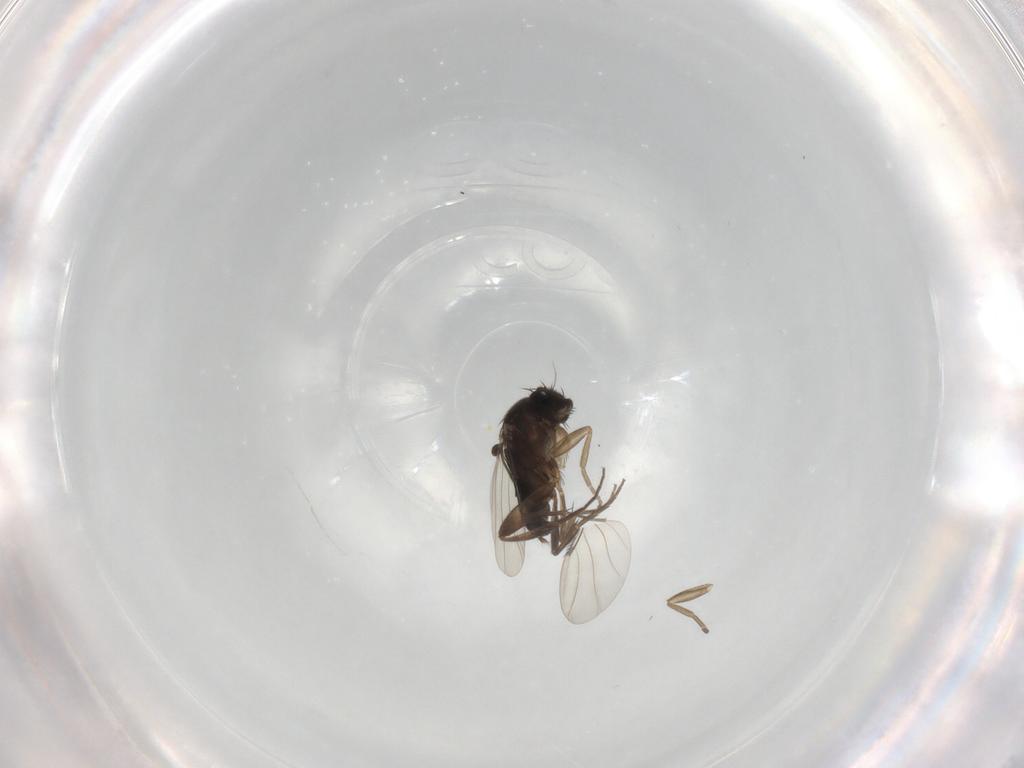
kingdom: Animalia
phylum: Arthropoda
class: Insecta
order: Diptera
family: Phoridae
